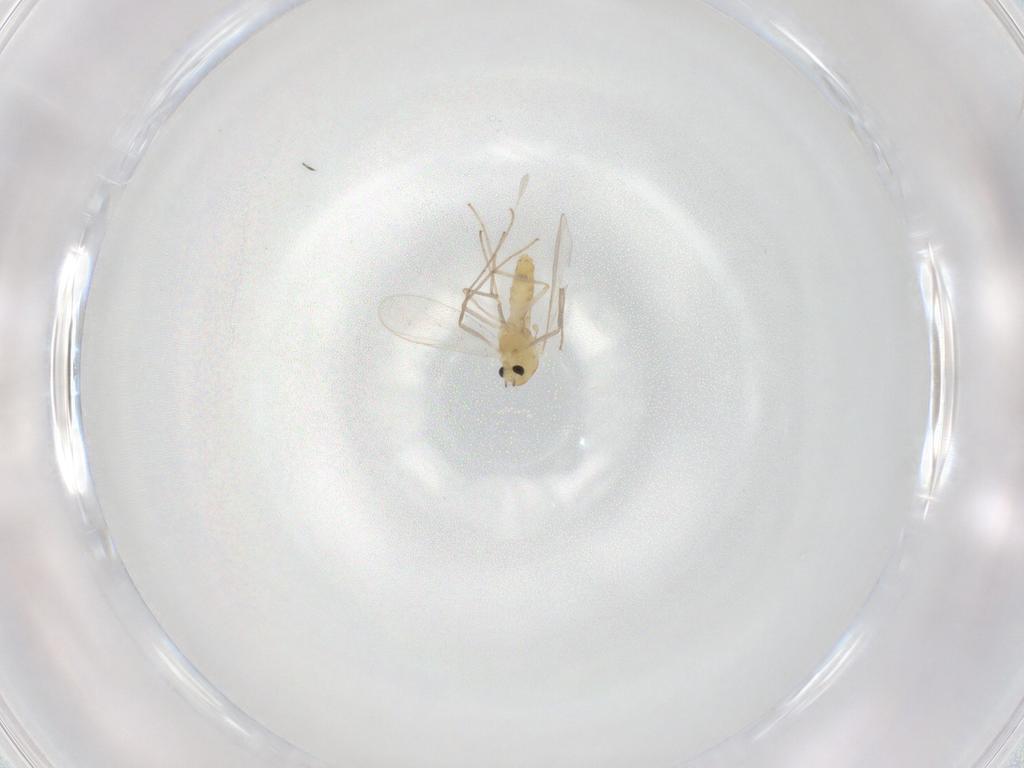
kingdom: Animalia
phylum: Arthropoda
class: Insecta
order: Diptera
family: Chironomidae
